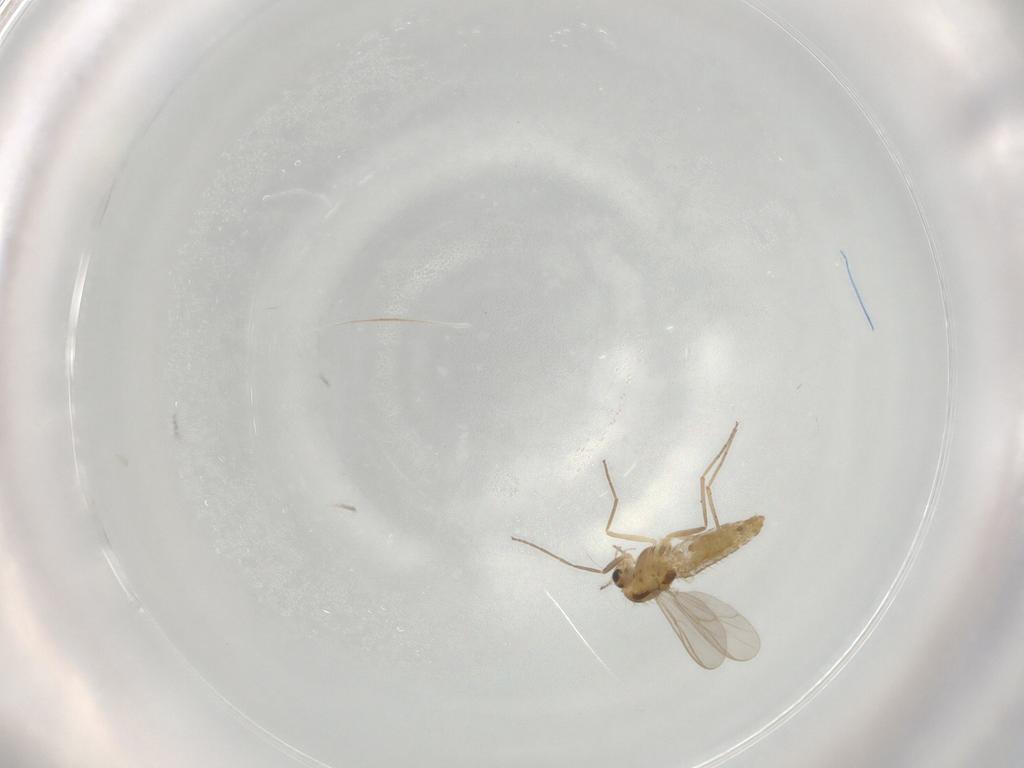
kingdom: Animalia
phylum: Arthropoda
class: Insecta
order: Diptera
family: Chironomidae
